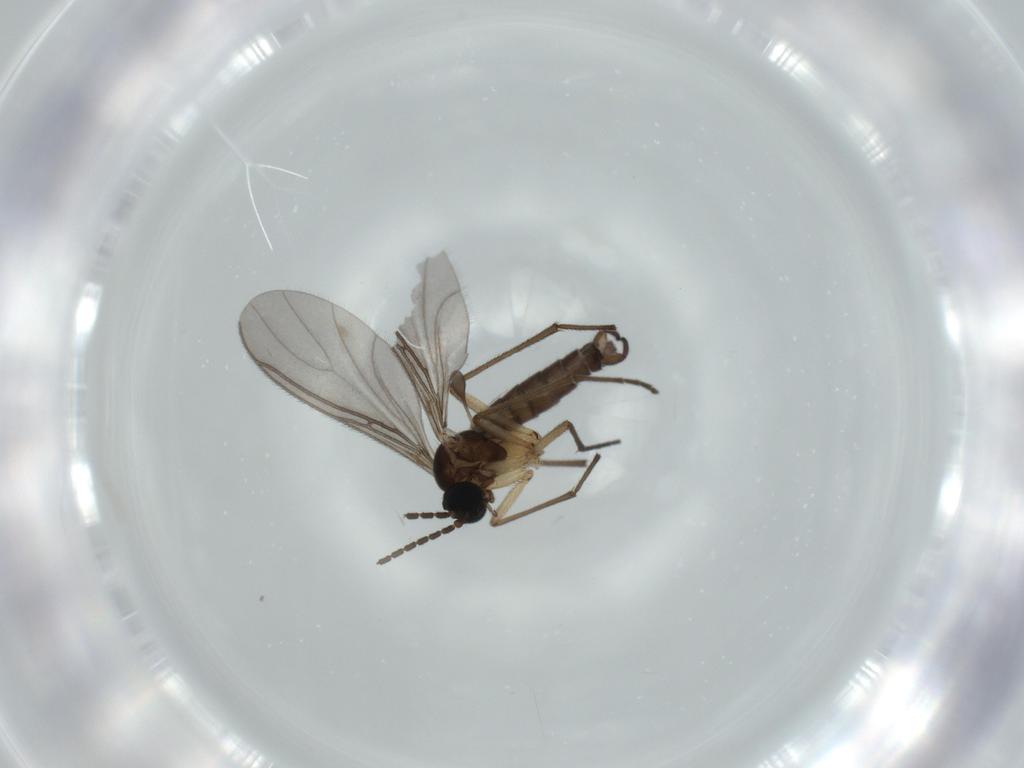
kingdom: Animalia
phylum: Arthropoda
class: Insecta
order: Diptera
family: Sciaridae
